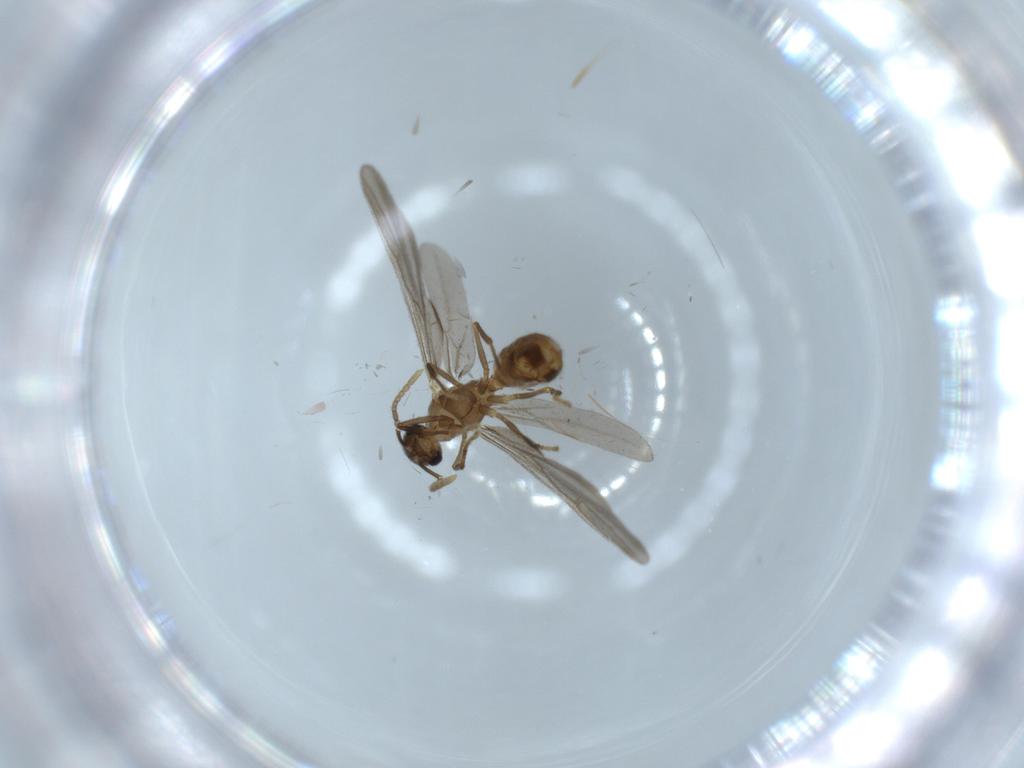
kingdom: Animalia
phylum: Arthropoda
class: Insecta
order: Hymenoptera
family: Formicidae
